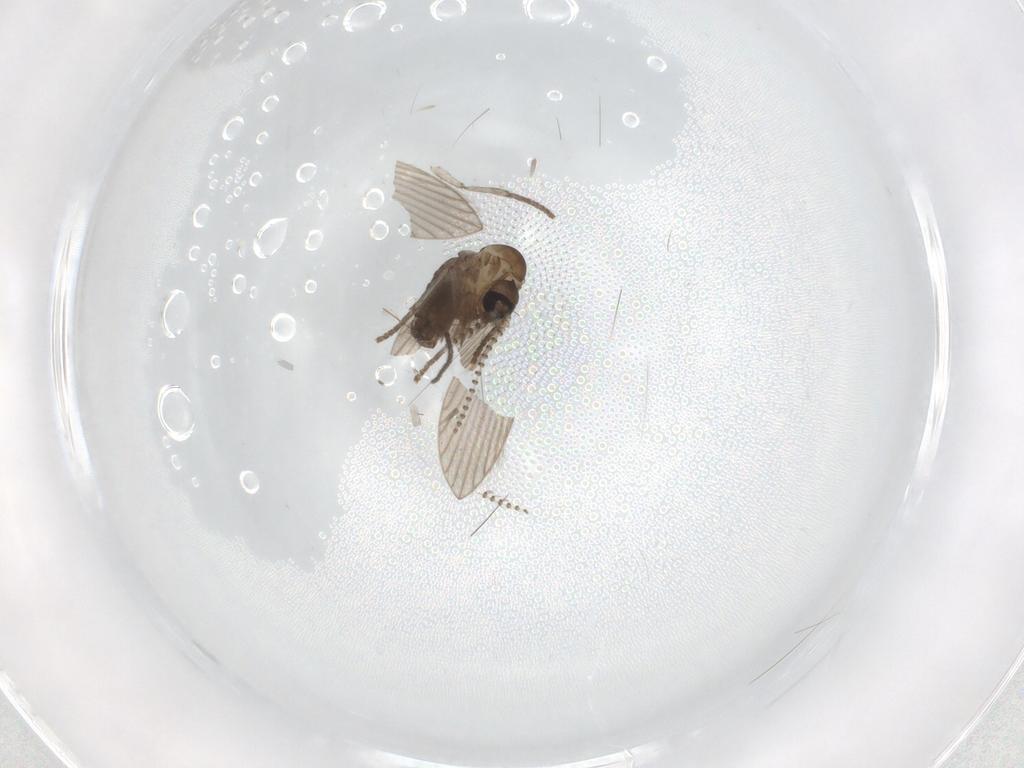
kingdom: Animalia
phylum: Arthropoda
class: Insecta
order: Diptera
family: Psychodidae
